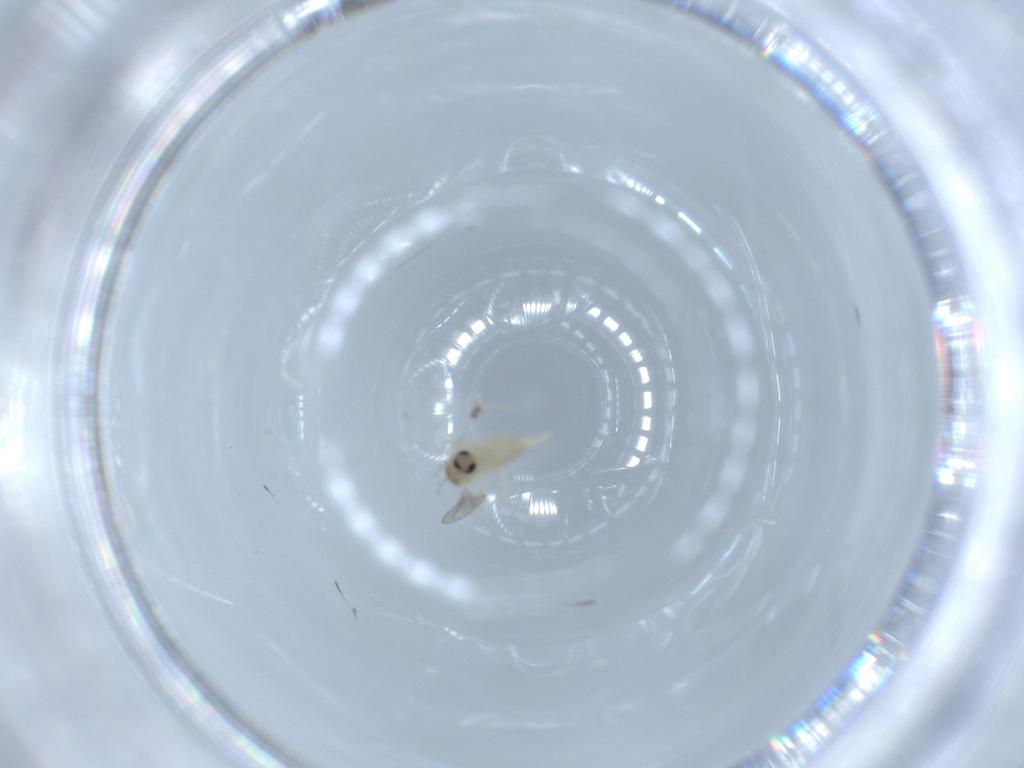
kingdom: Animalia
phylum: Arthropoda
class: Insecta
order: Diptera
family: Cecidomyiidae
